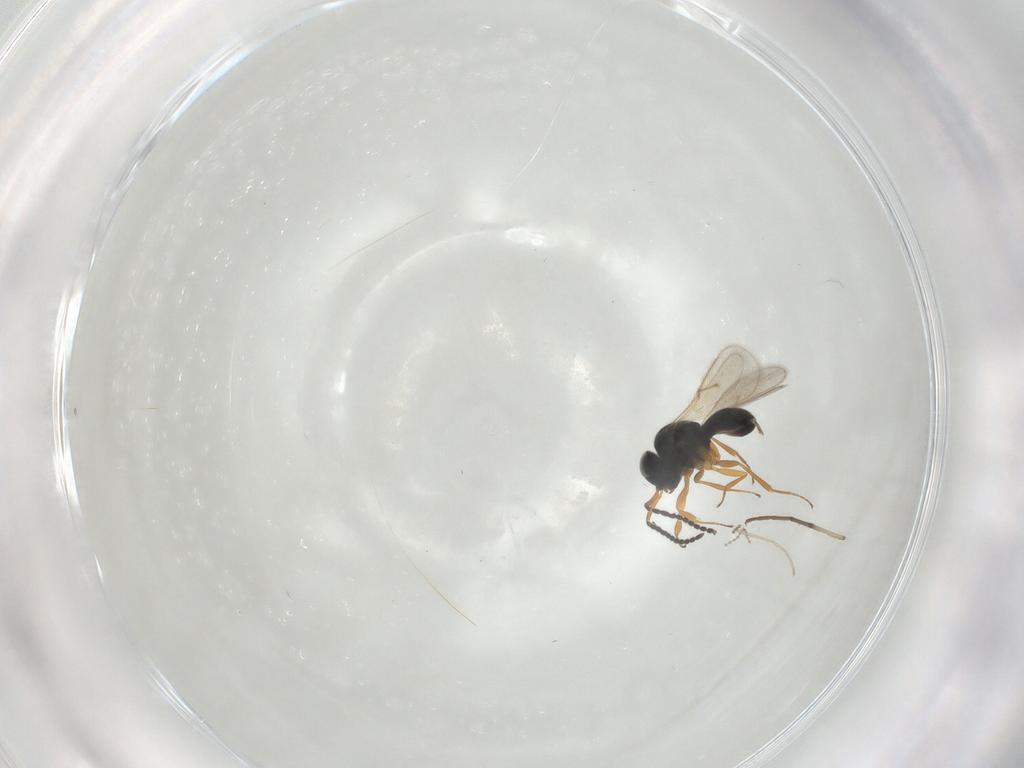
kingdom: Animalia
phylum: Arthropoda
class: Insecta
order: Hymenoptera
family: Scelionidae
